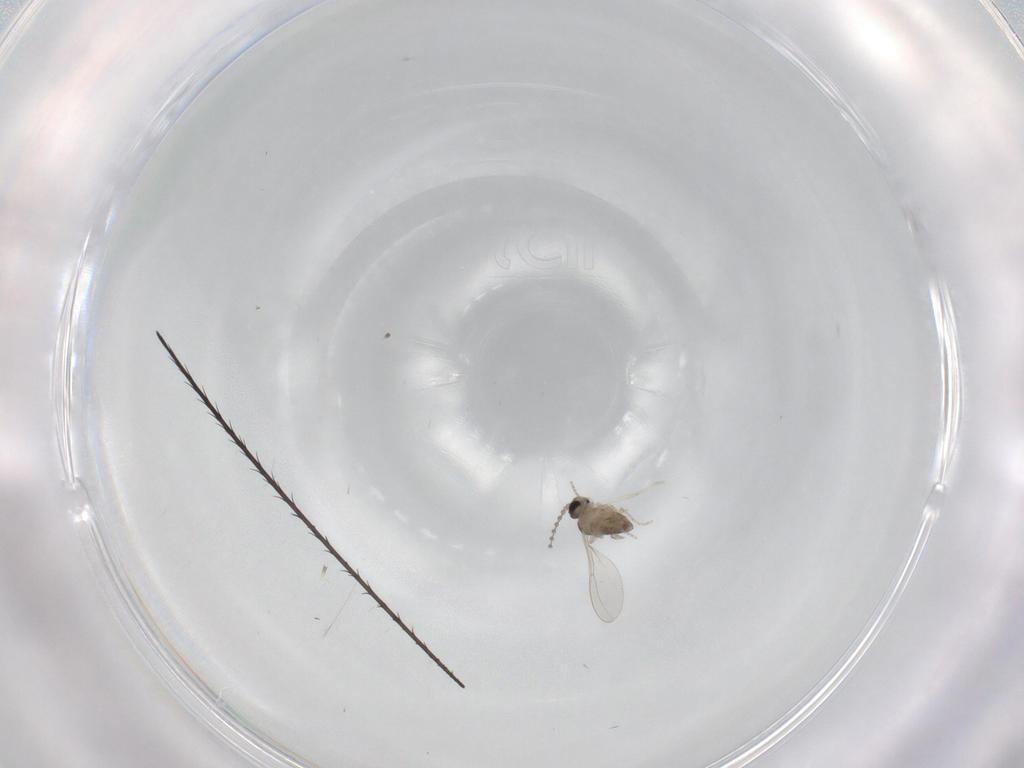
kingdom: Animalia
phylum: Arthropoda
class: Insecta
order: Diptera
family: Cecidomyiidae
